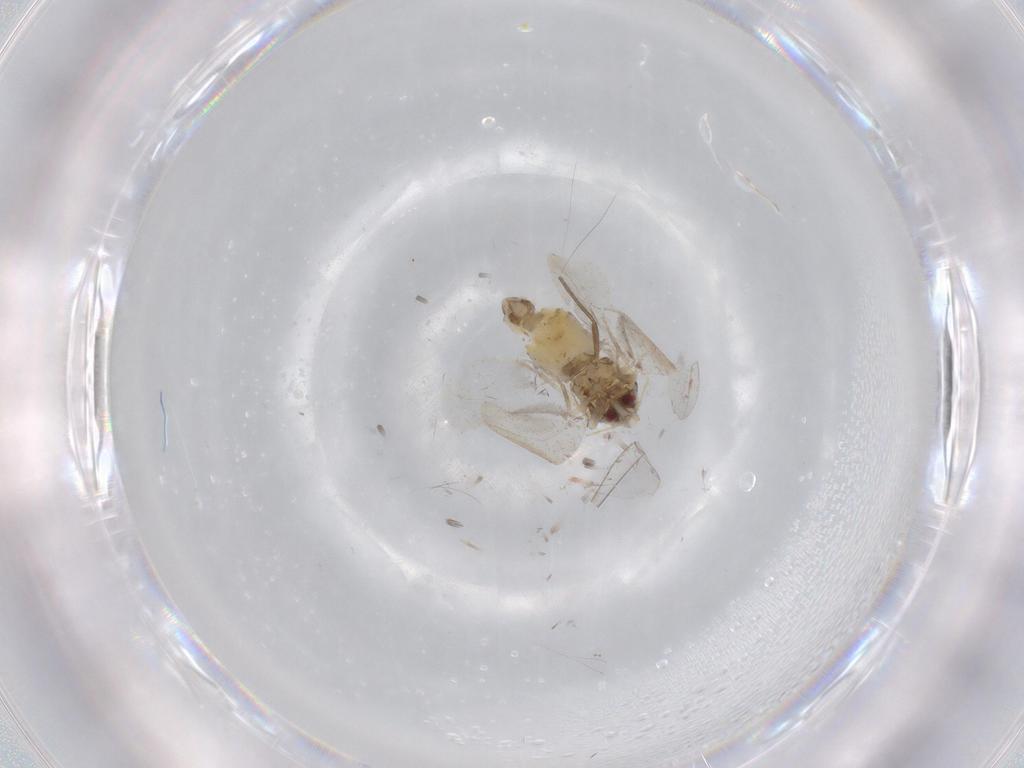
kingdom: Animalia
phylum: Arthropoda
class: Insecta
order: Hemiptera
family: Aleyrodidae
